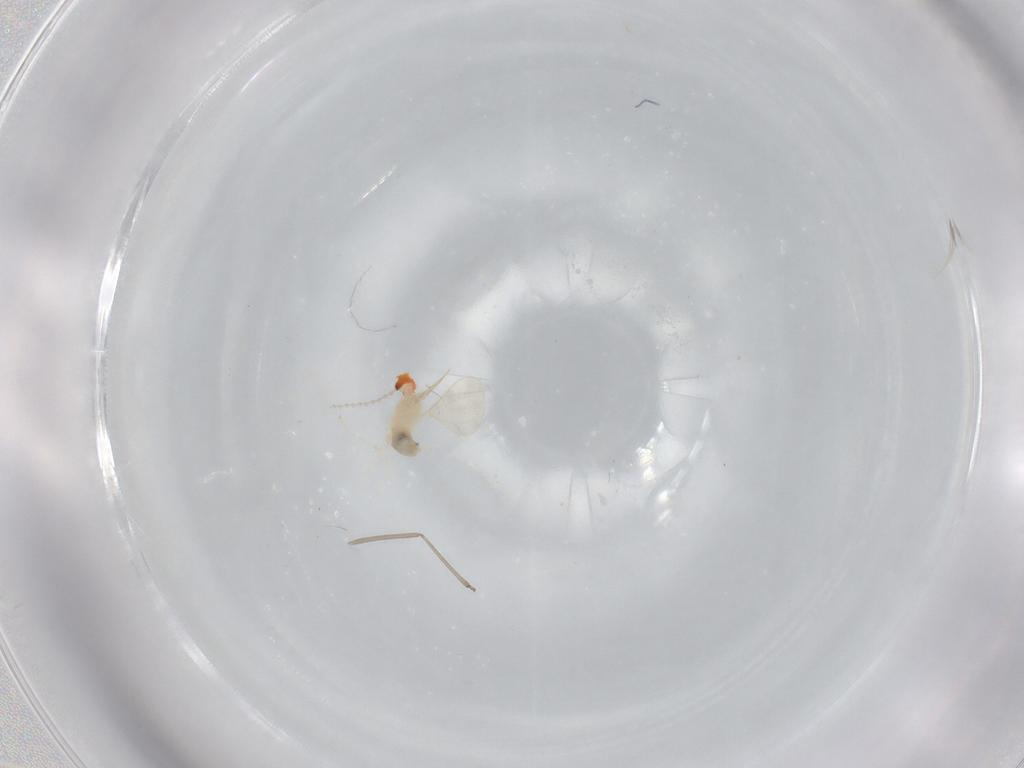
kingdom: Animalia
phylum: Arthropoda
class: Insecta
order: Diptera
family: Cecidomyiidae
